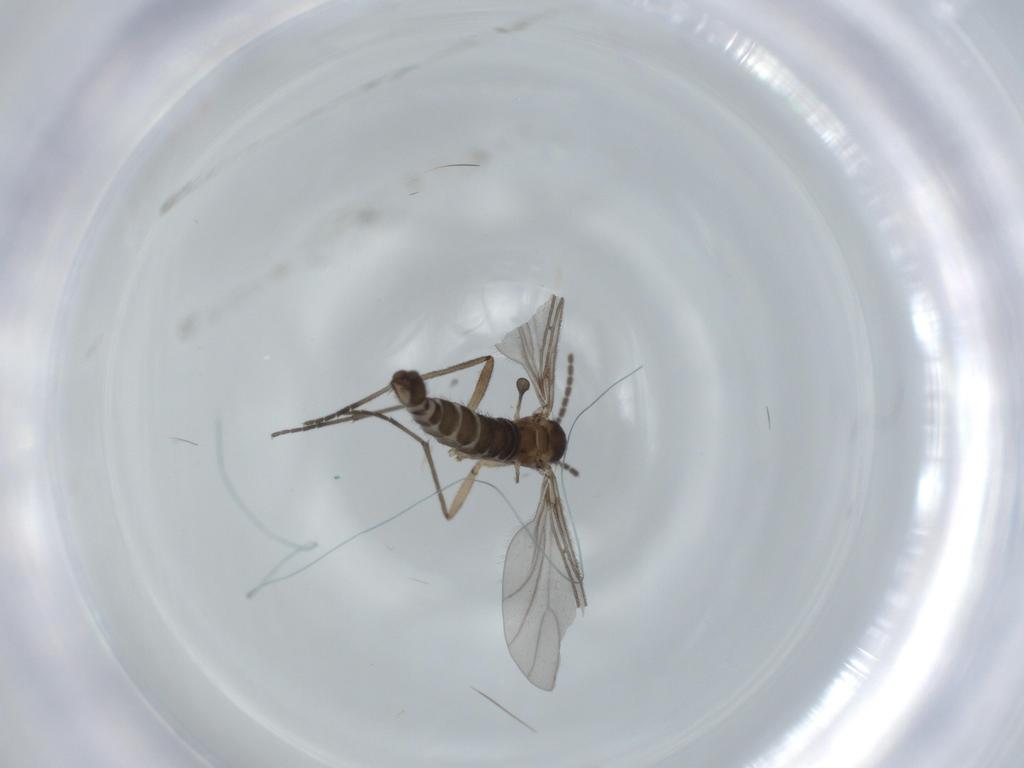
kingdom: Animalia
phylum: Arthropoda
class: Insecta
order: Diptera
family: Sciaridae
